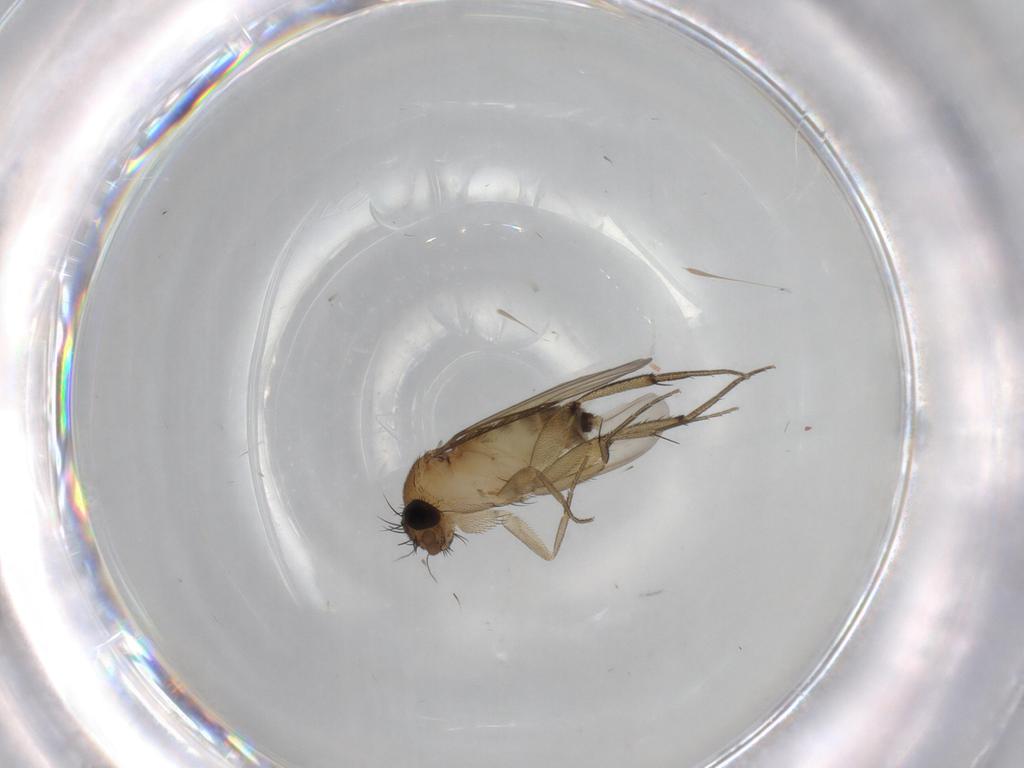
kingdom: Animalia
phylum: Arthropoda
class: Insecta
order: Diptera
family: Phoridae
